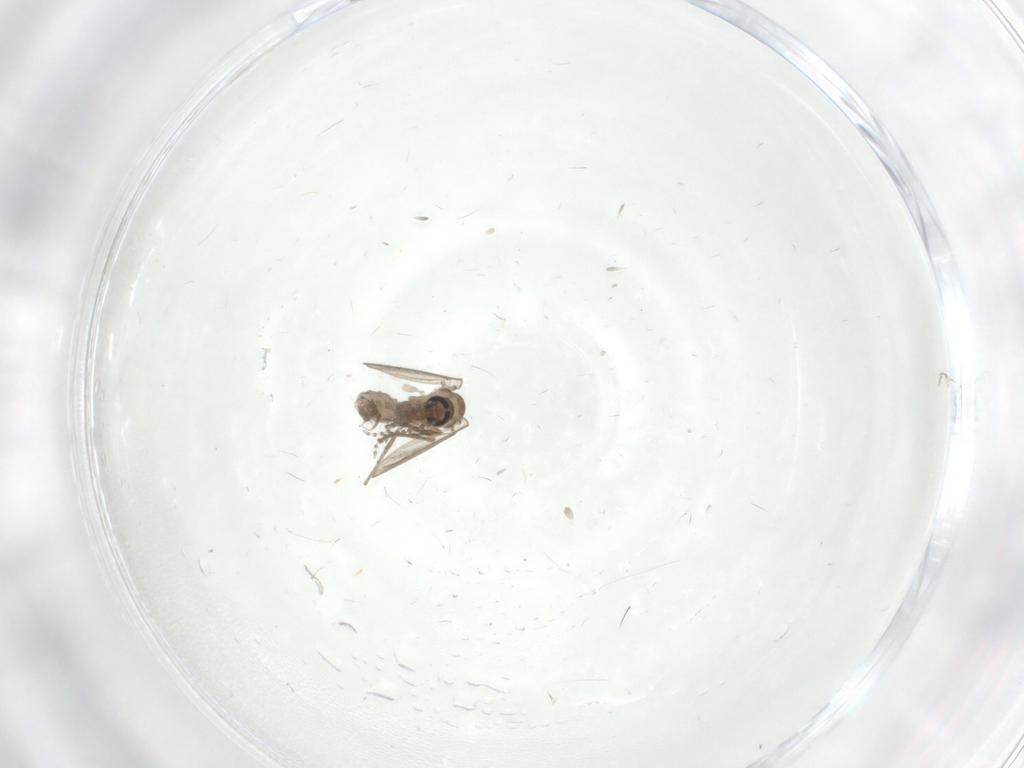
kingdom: Animalia
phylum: Arthropoda
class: Insecta
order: Diptera
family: Psychodidae
